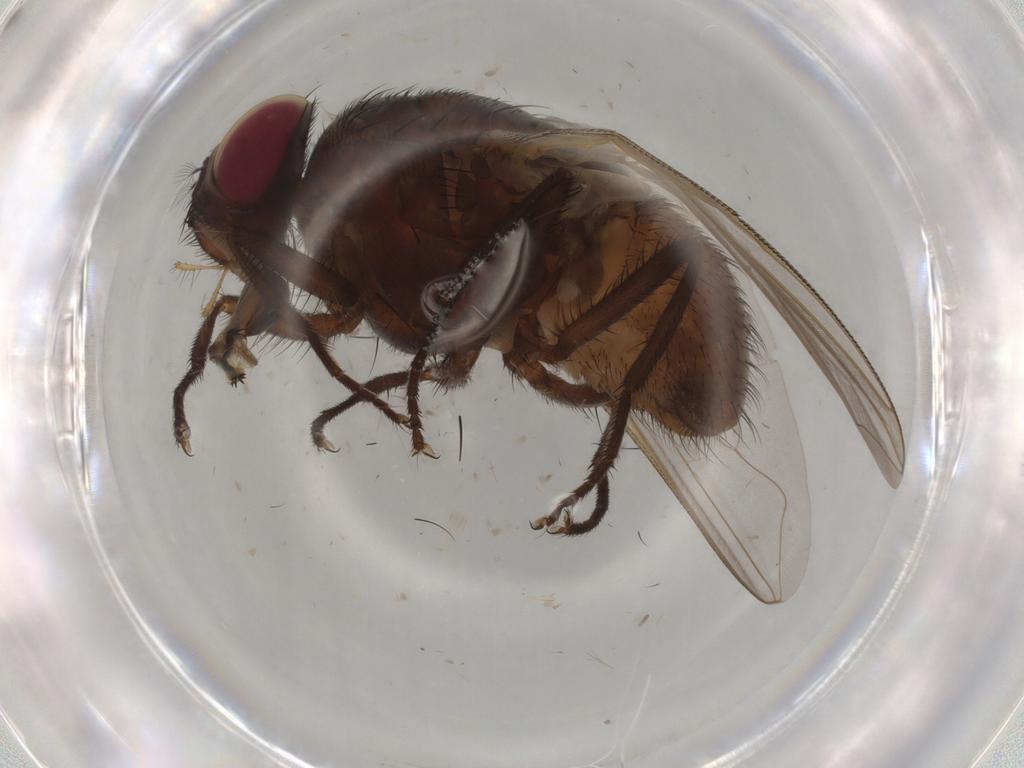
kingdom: Animalia
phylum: Arthropoda
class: Insecta
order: Diptera
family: Muscidae
